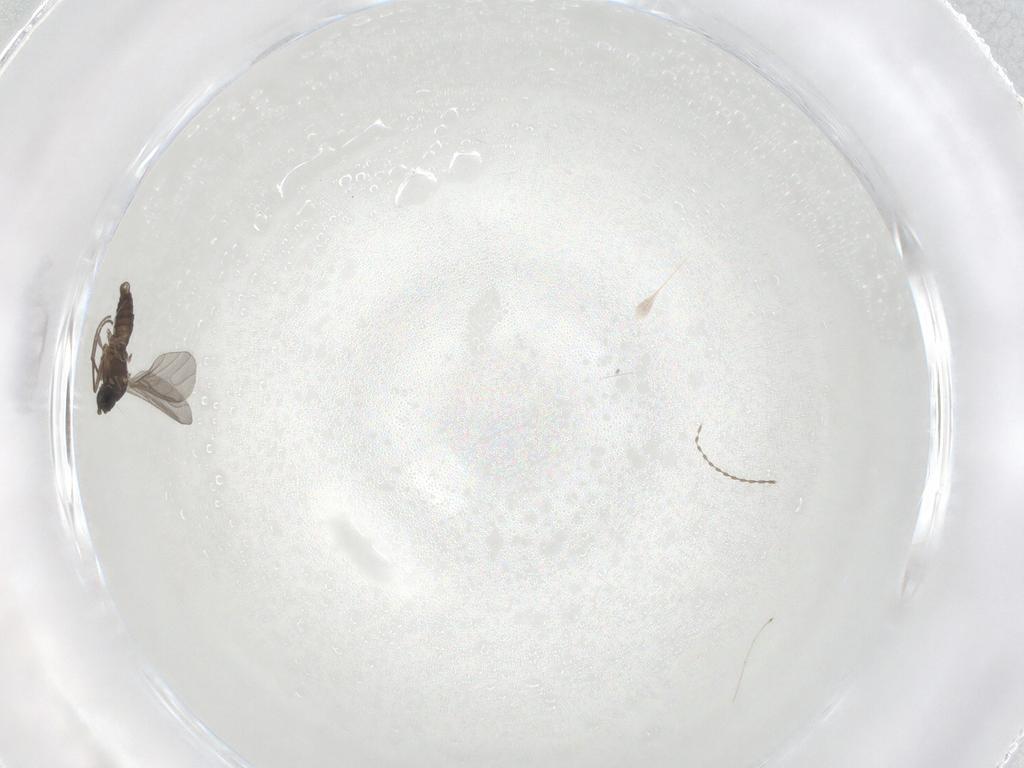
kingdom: Animalia
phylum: Arthropoda
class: Insecta
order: Diptera
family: Sciaridae
